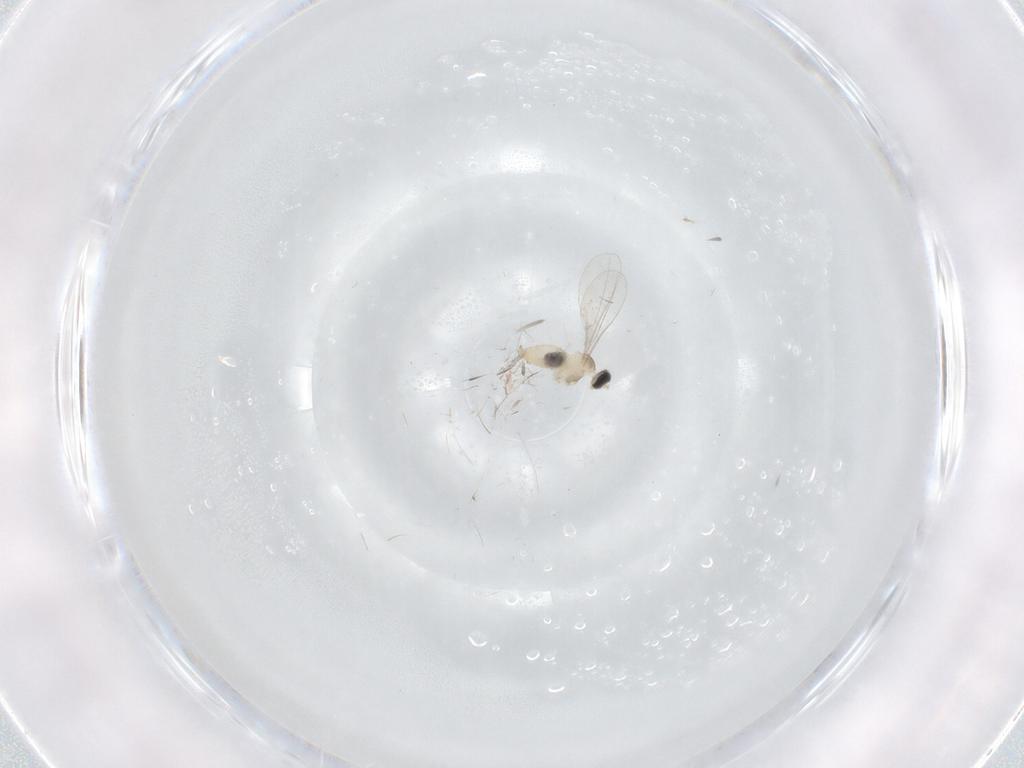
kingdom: Animalia
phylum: Arthropoda
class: Insecta
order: Diptera
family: Cecidomyiidae
